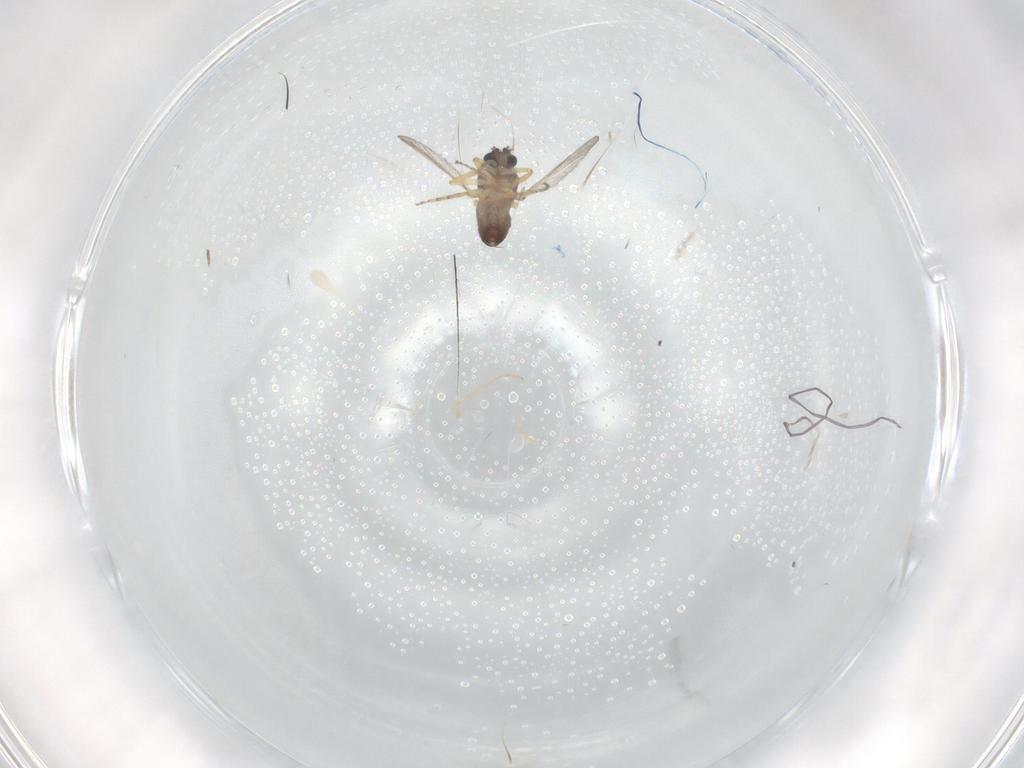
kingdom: Animalia
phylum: Arthropoda
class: Insecta
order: Diptera
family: Ceratopogonidae
